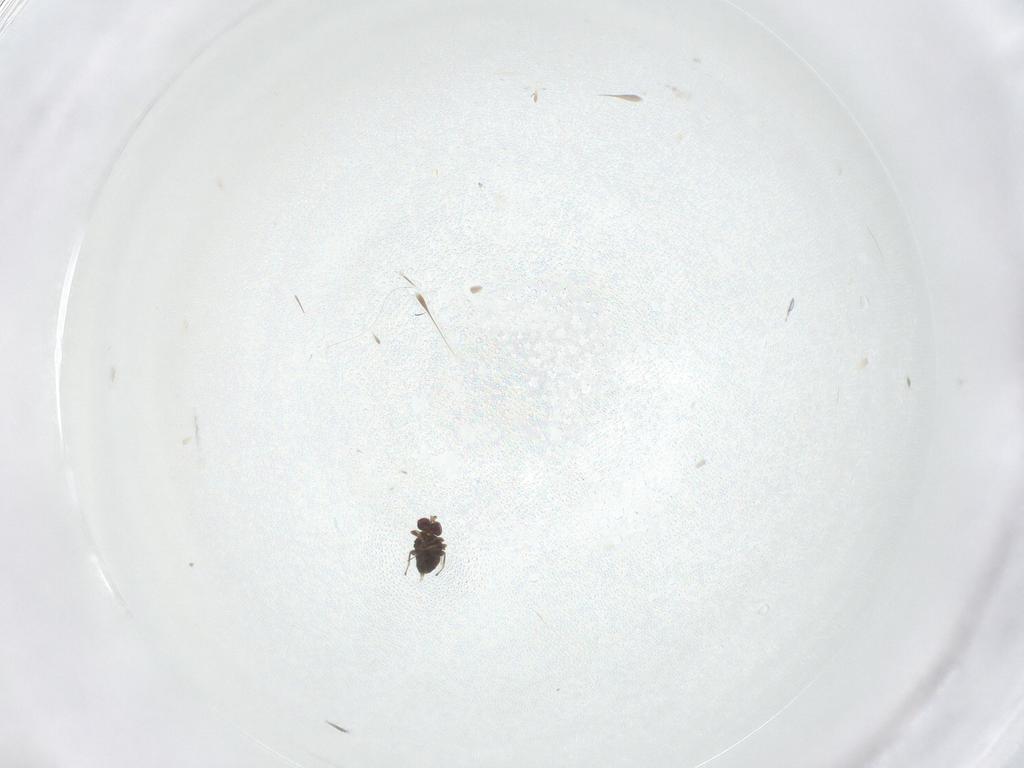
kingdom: Animalia
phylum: Arthropoda
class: Insecta
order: Hymenoptera
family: Azotidae
